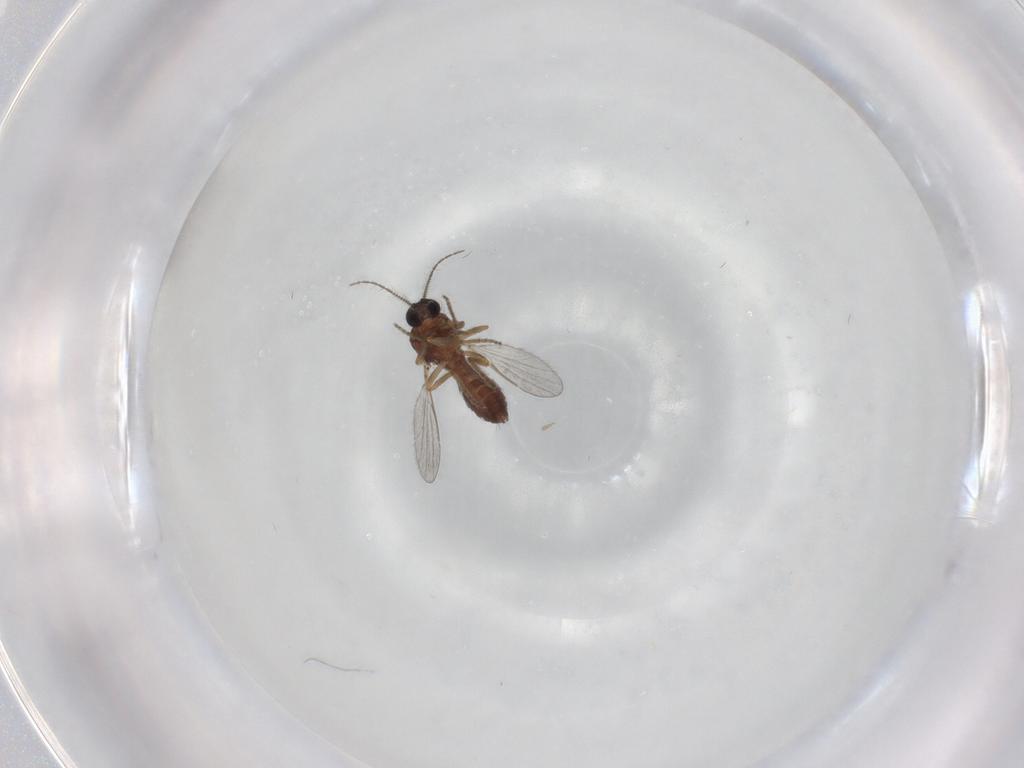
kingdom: Animalia
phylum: Arthropoda
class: Insecta
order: Diptera
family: Ceratopogonidae
